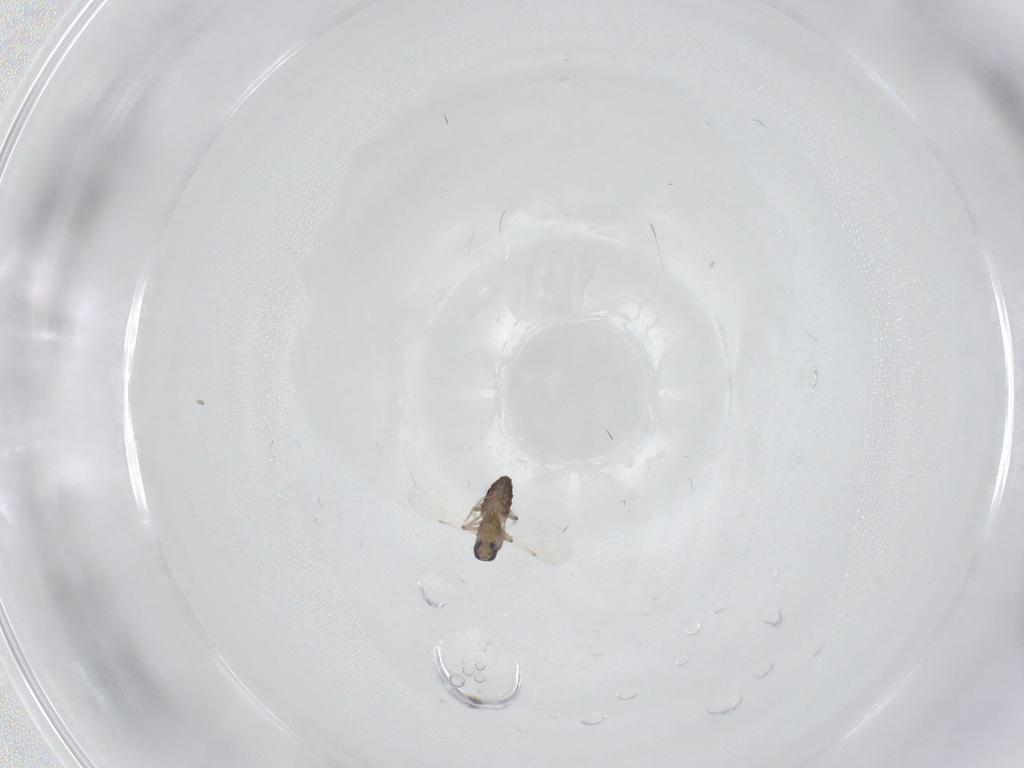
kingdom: Animalia
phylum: Arthropoda
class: Insecta
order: Diptera
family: Ceratopogonidae
